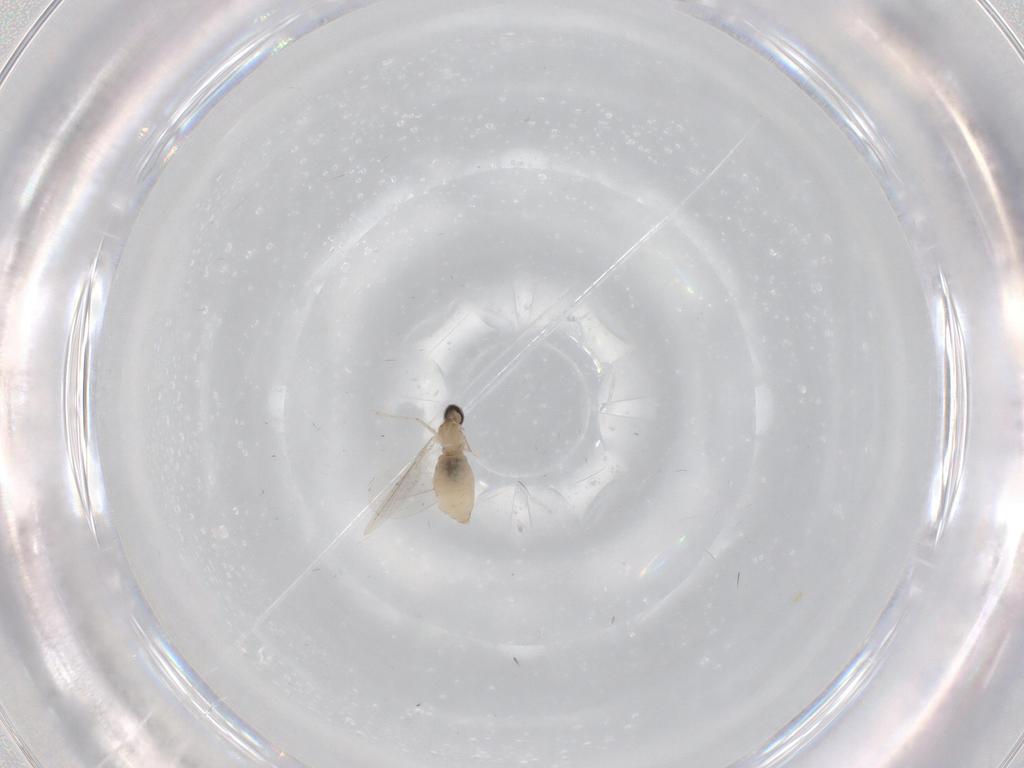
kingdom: Animalia
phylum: Arthropoda
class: Insecta
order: Diptera
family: Cecidomyiidae
